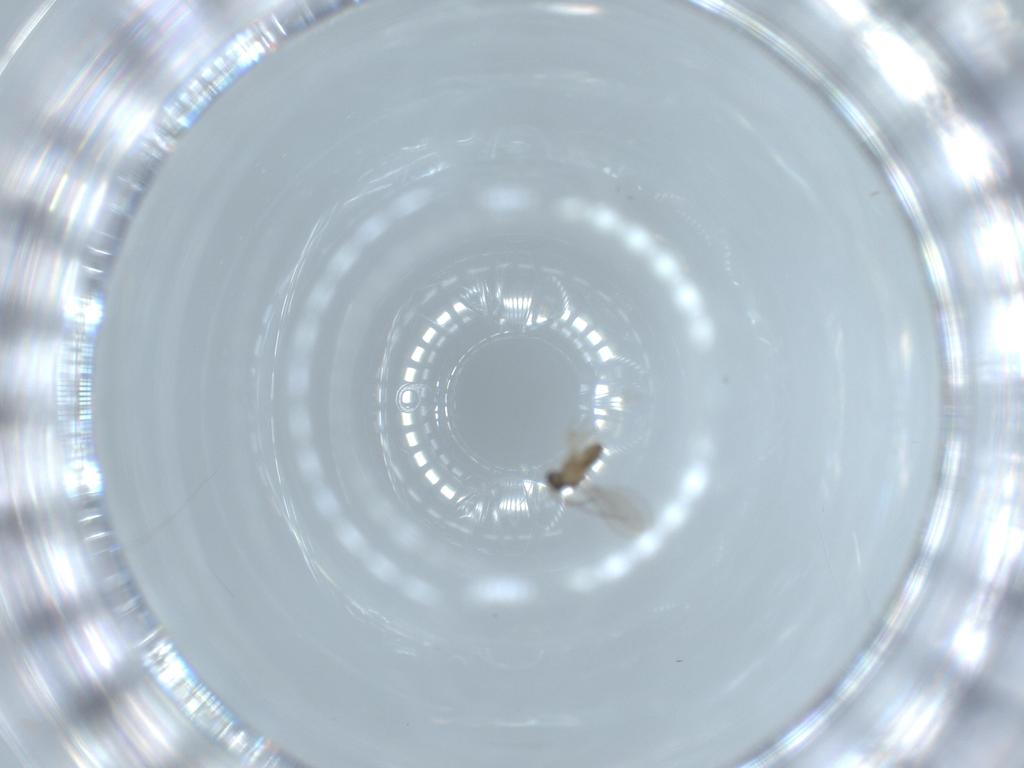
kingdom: Animalia
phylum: Arthropoda
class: Insecta
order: Diptera
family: Cecidomyiidae
